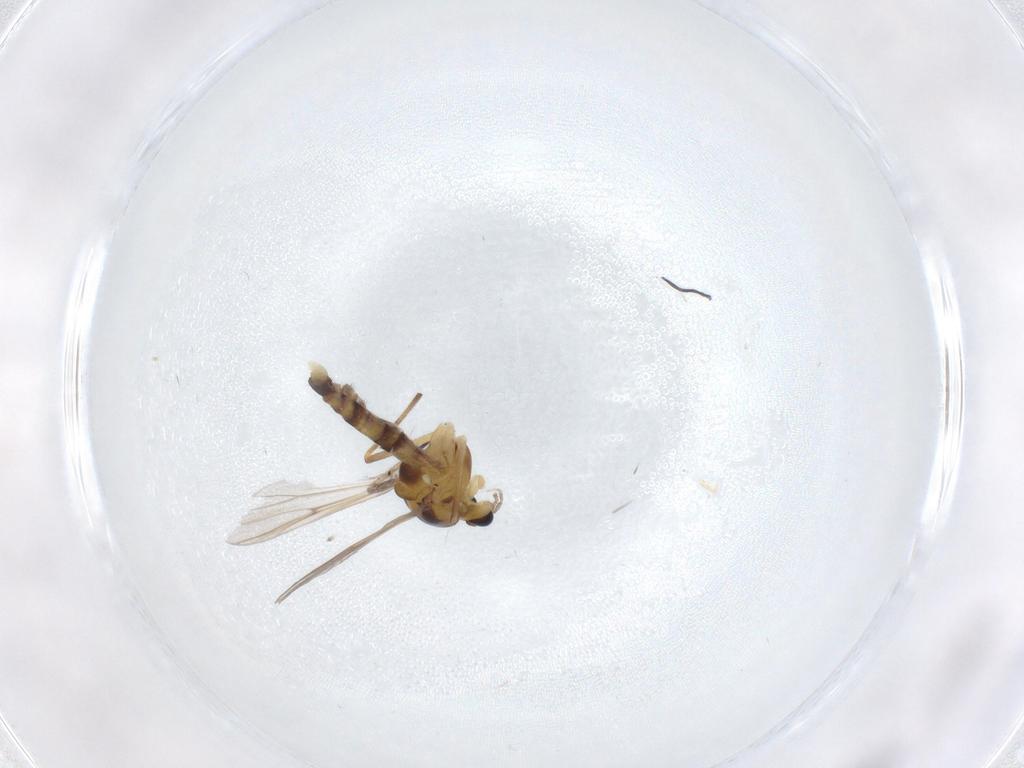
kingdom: Animalia
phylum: Arthropoda
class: Insecta
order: Diptera
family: Chironomidae
